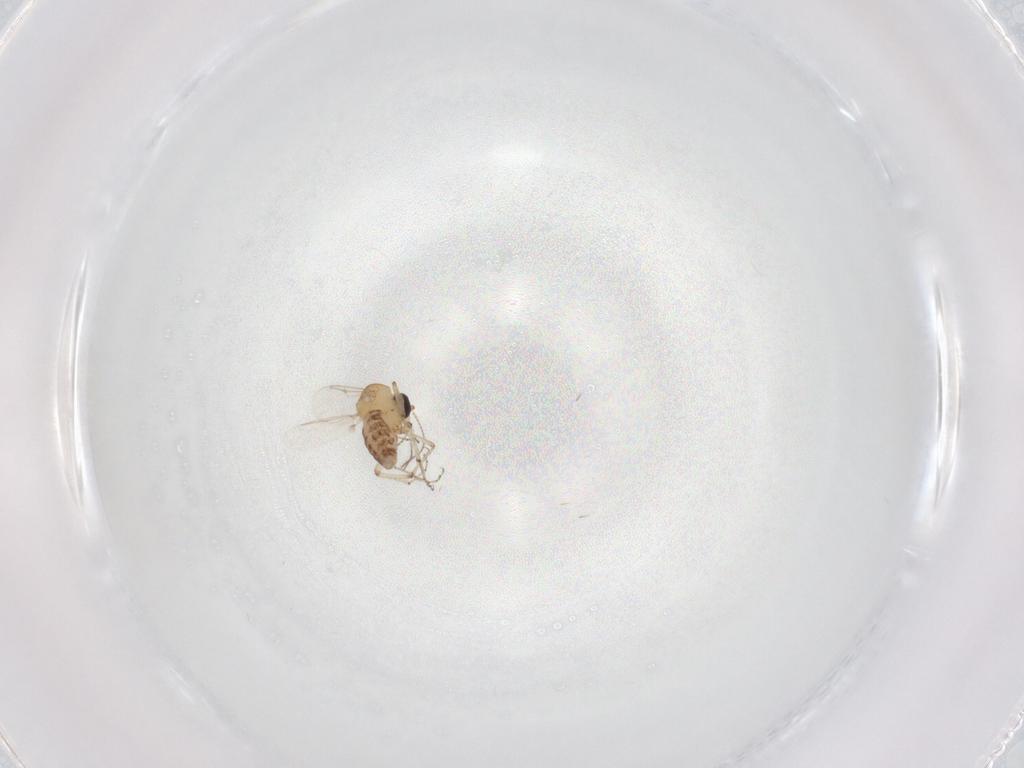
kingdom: Animalia
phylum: Arthropoda
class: Insecta
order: Diptera
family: Ceratopogonidae
